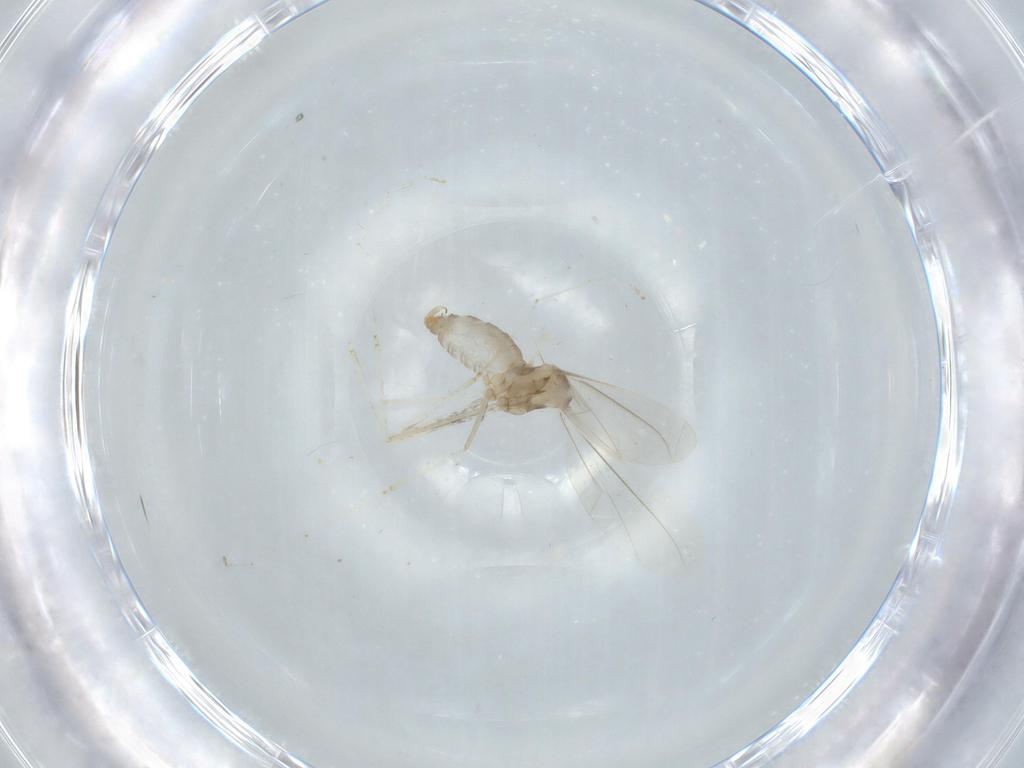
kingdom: Animalia
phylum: Arthropoda
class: Insecta
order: Diptera
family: Cecidomyiidae
